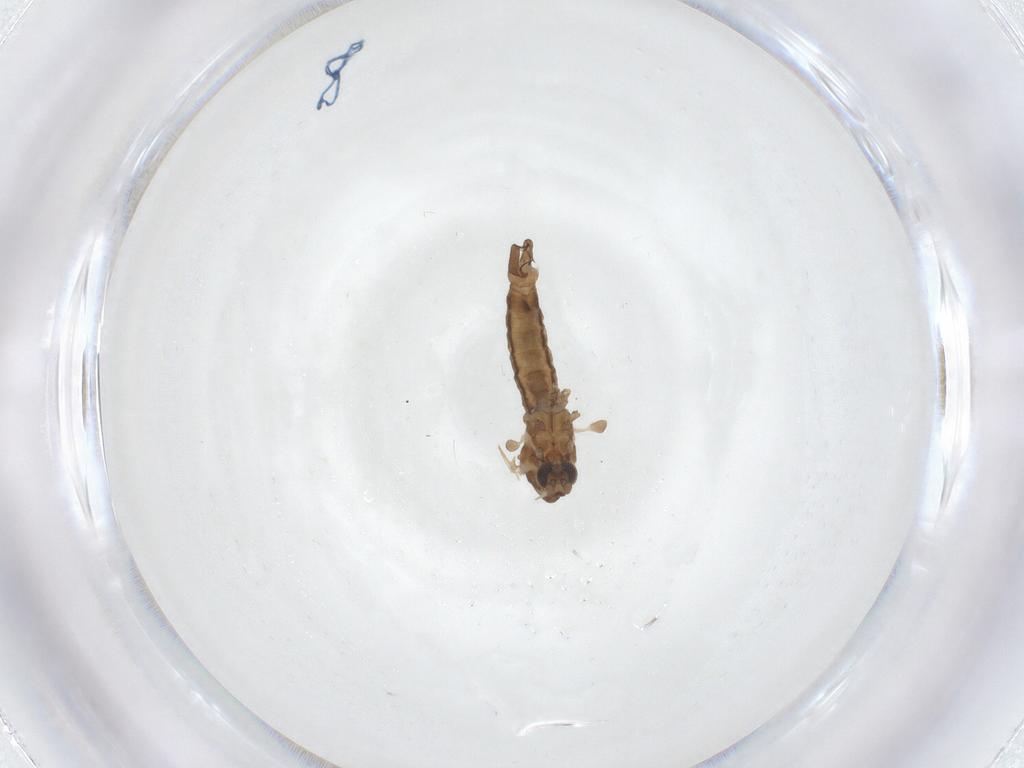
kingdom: Animalia
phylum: Arthropoda
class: Insecta
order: Diptera
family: Limoniidae
